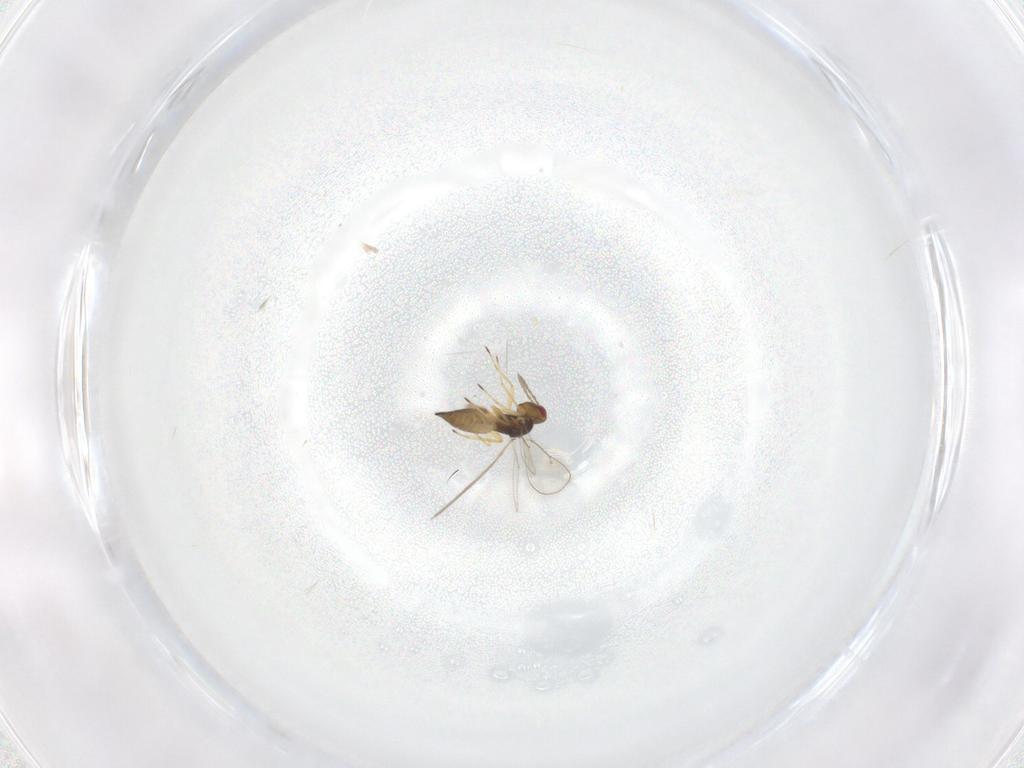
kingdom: Animalia
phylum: Arthropoda
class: Insecta
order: Hymenoptera
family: Eulophidae
